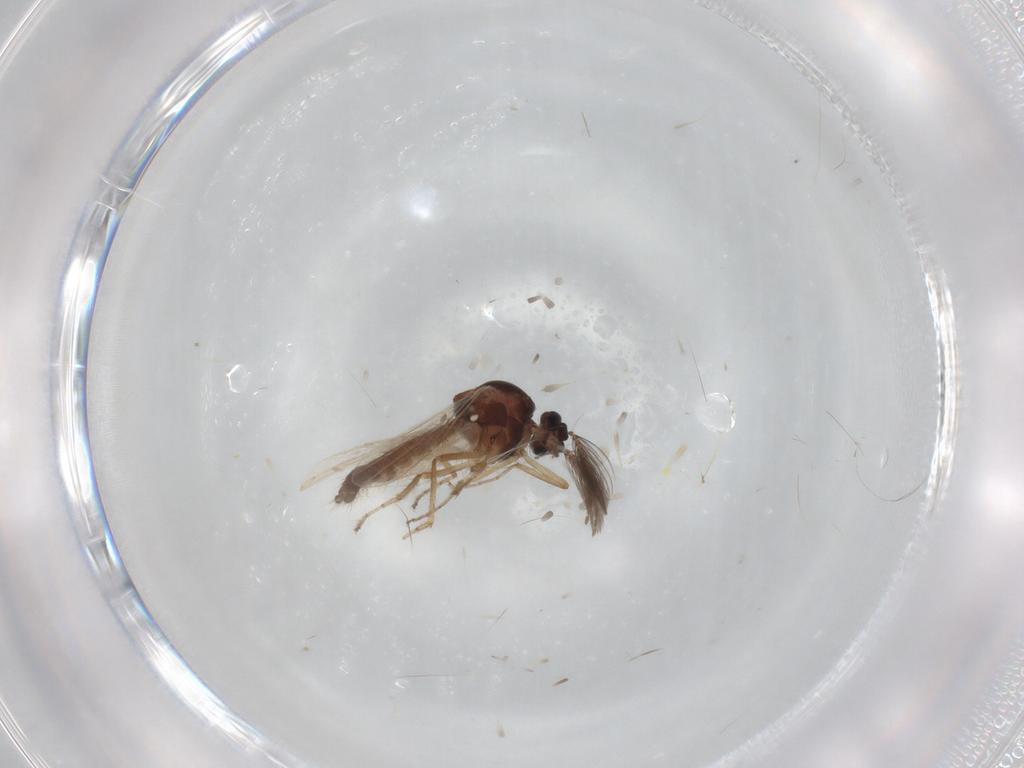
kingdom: Animalia
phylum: Arthropoda
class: Insecta
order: Diptera
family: Ceratopogonidae
